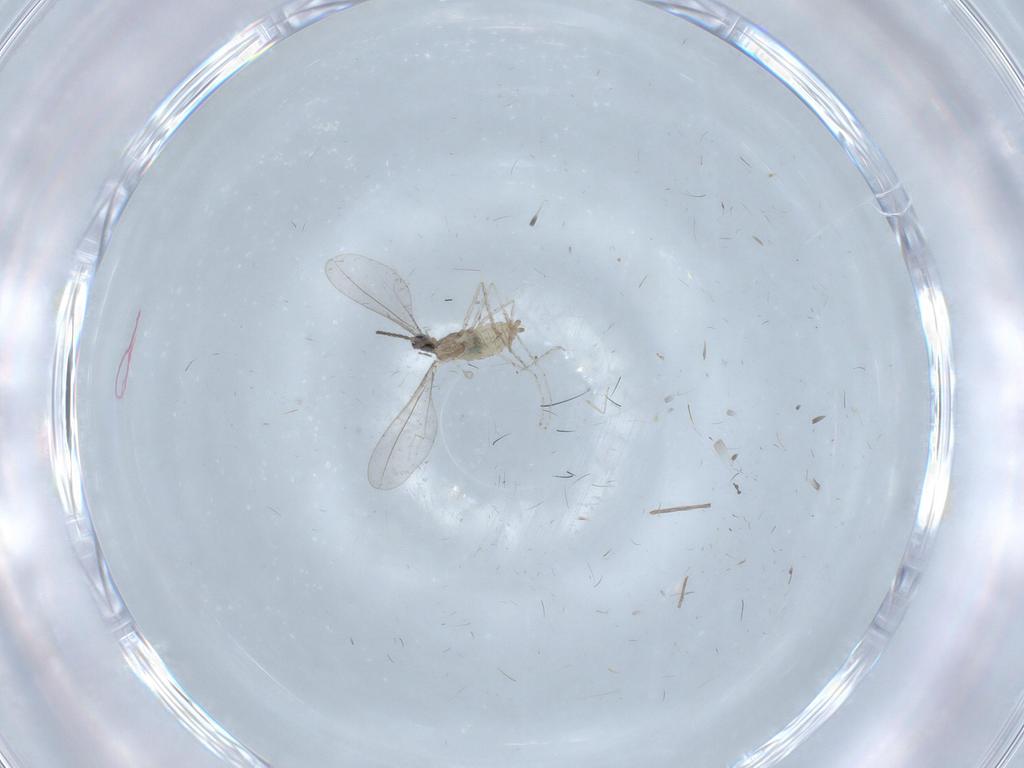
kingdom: Animalia
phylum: Arthropoda
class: Insecta
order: Diptera
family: Cecidomyiidae
